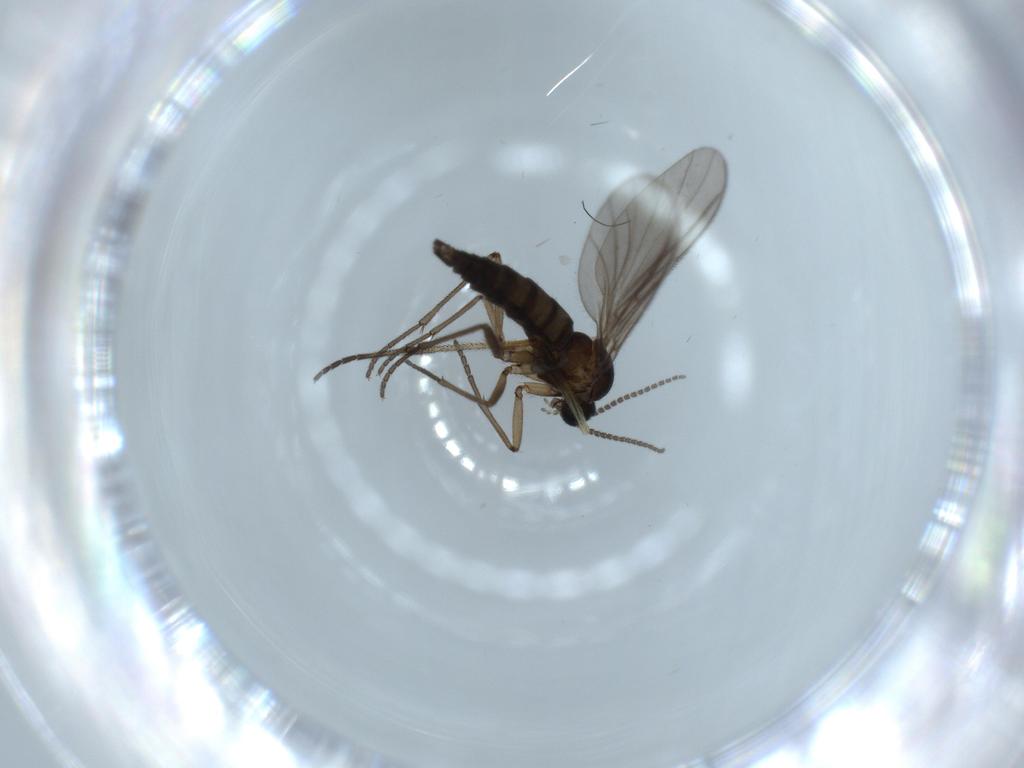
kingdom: Animalia
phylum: Arthropoda
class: Insecta
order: Diptera
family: Sciaridae
